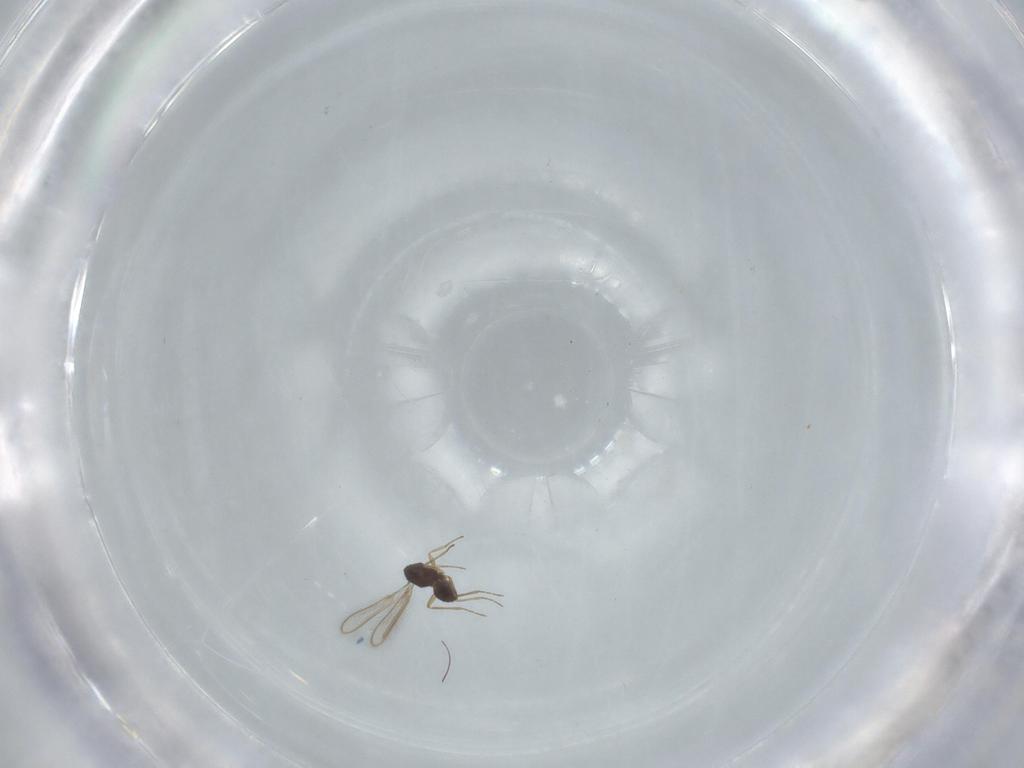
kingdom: Animalia
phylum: Arthropoda
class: Insecta
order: Hymenoptera
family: Mymaridae
